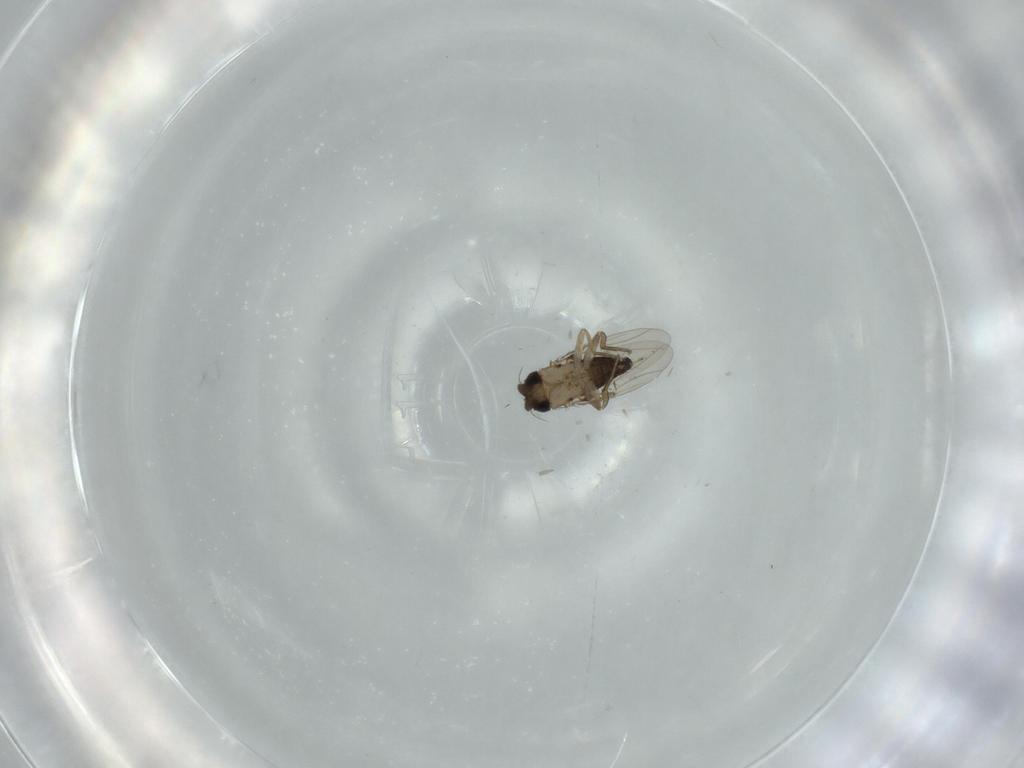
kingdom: Animalia
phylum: Arthropoda
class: Insecta
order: Diptera
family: Phoridae
